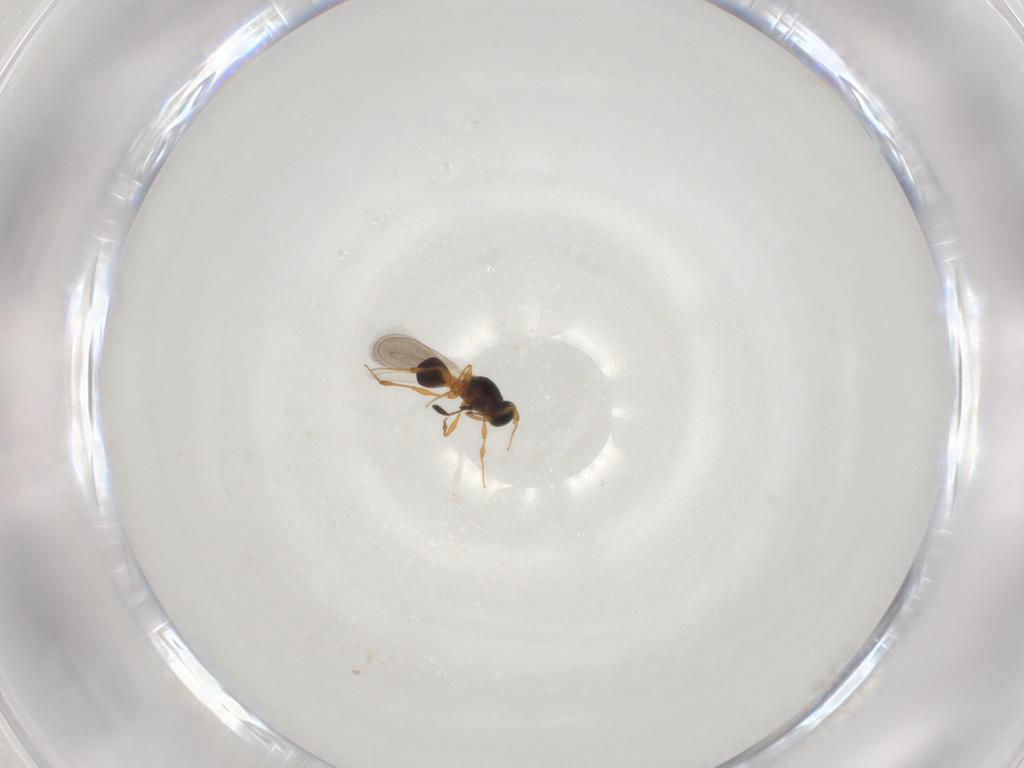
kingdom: Animalia
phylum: Arthropoda
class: Insecta
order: Hymenoptera
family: Platygastridae
